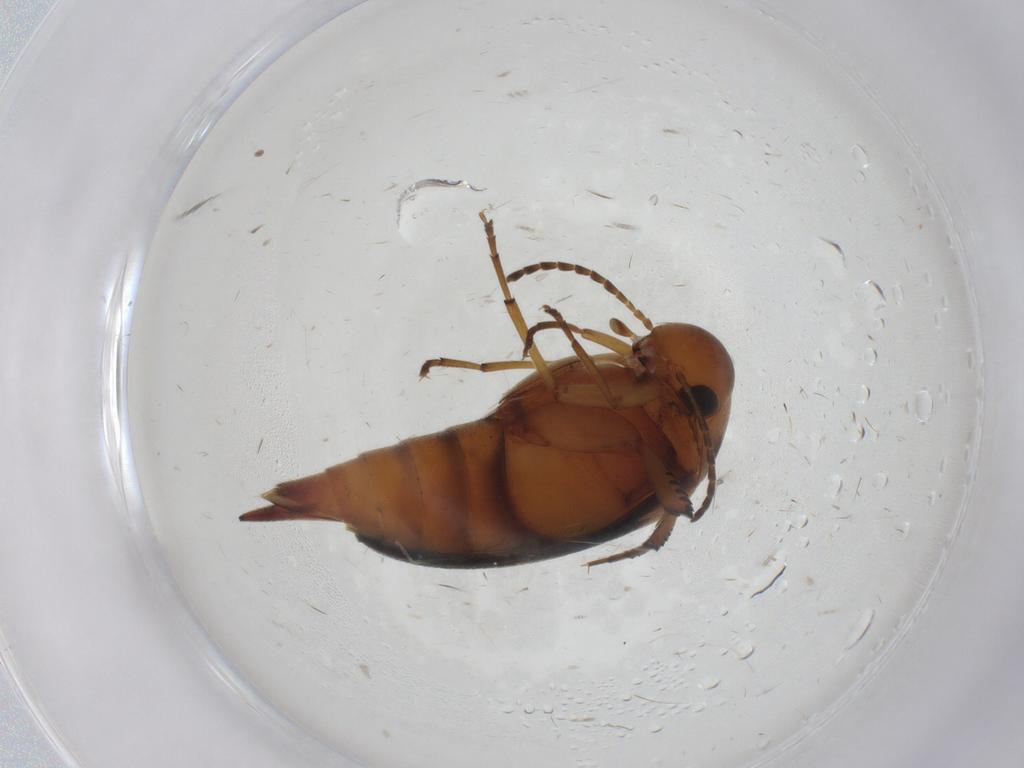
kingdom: Animalia
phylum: Arthropoda
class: Insecta
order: Coleoptera
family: Mordellidae
